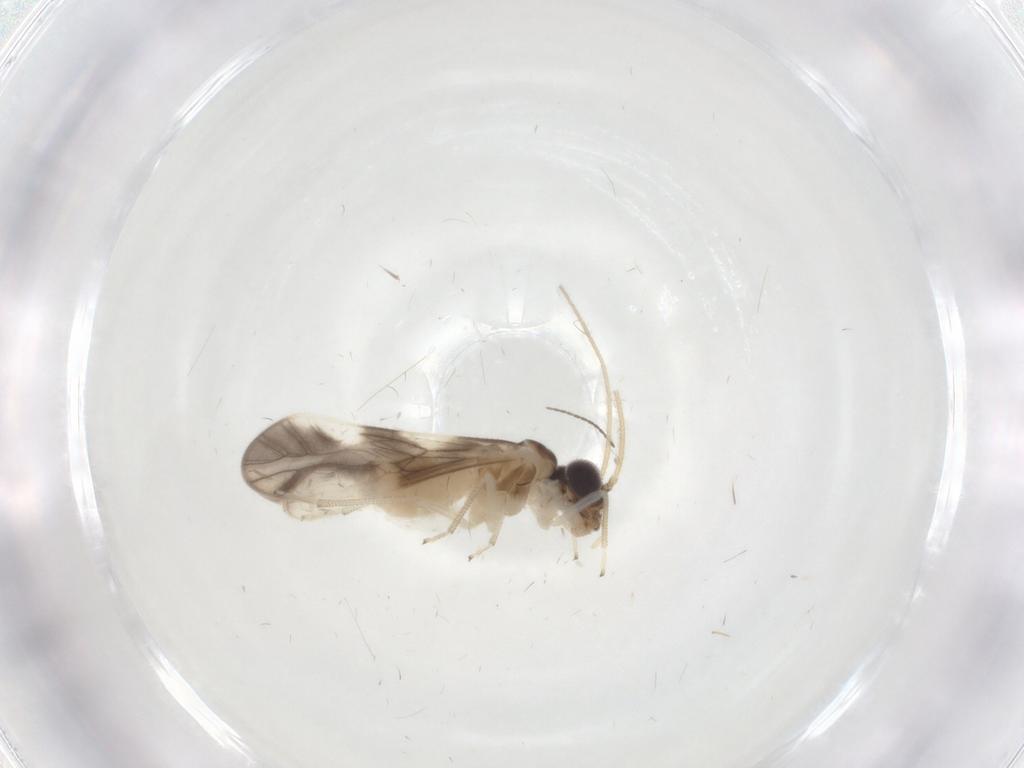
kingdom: Animalia
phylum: Arthropoda
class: Insecta
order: Psocodea
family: Caeciliusidae
